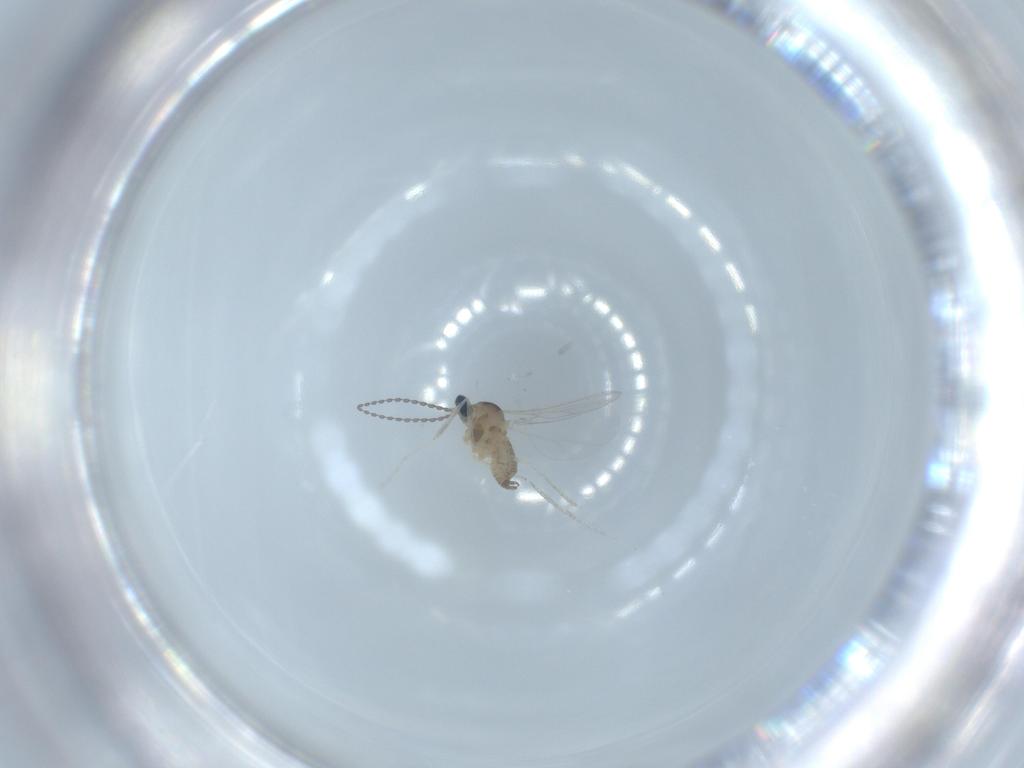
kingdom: Animalia
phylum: Arthropoda
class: Insecta
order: Diptera
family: Cecidomyiidae
